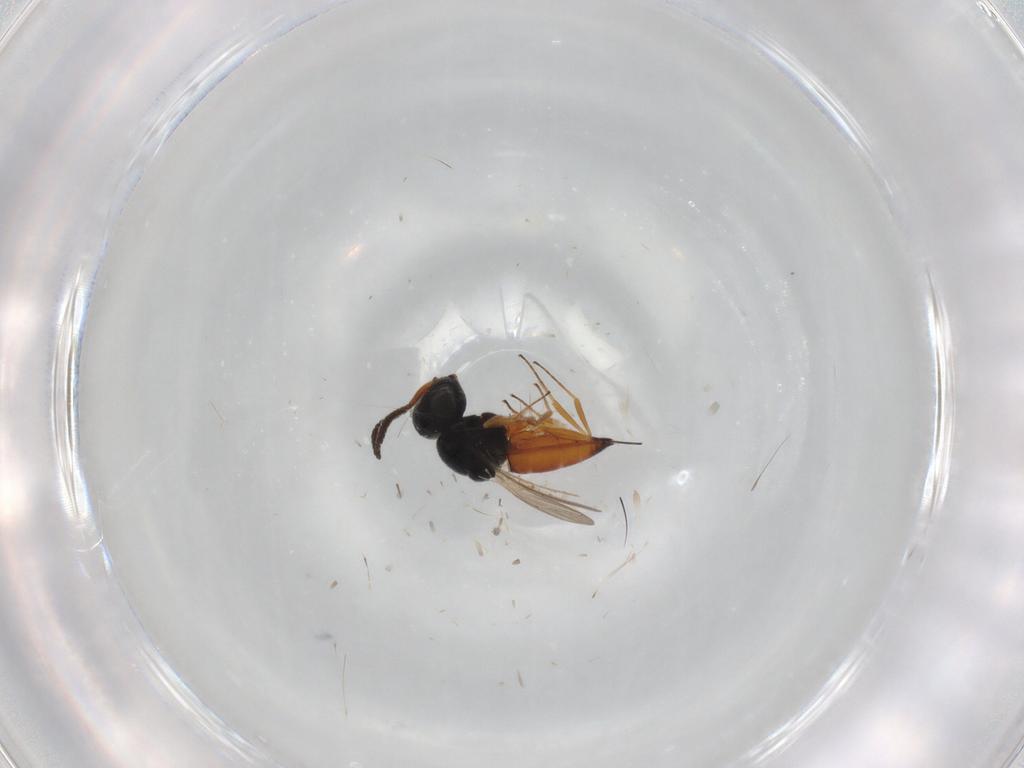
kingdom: Animalia
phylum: Arthropoda
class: Insecta
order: Hymenoptera
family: Scelionidae
